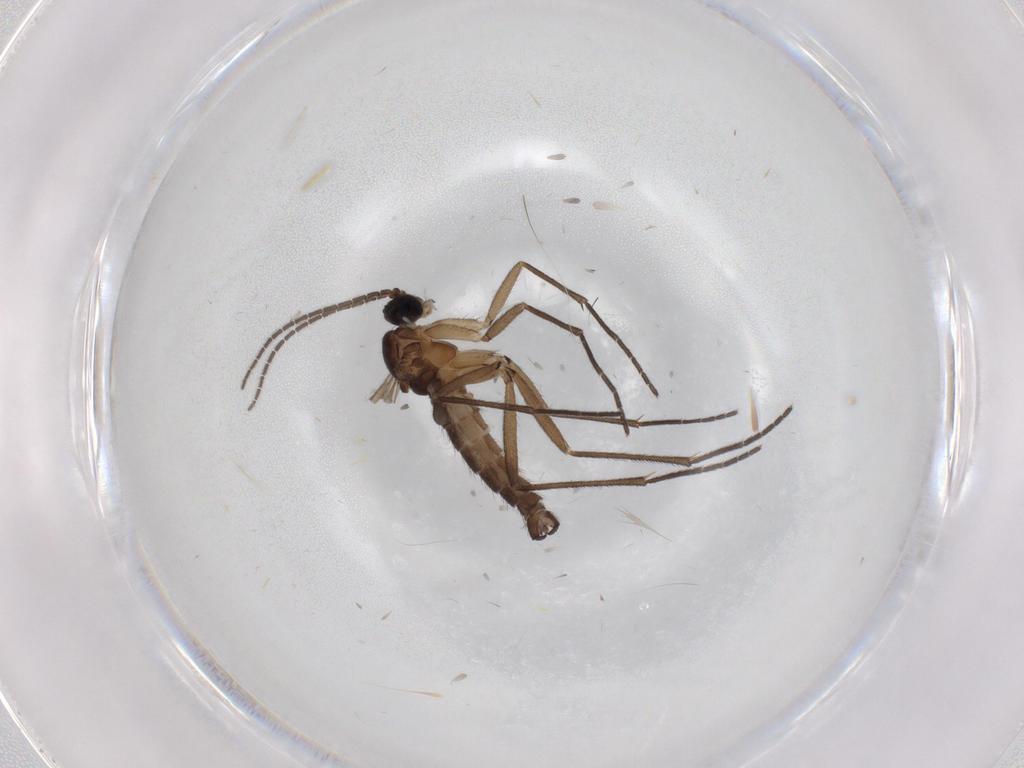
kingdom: Animalia
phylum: Arthropoda
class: Insecta
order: Diptera
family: Sciaridae
